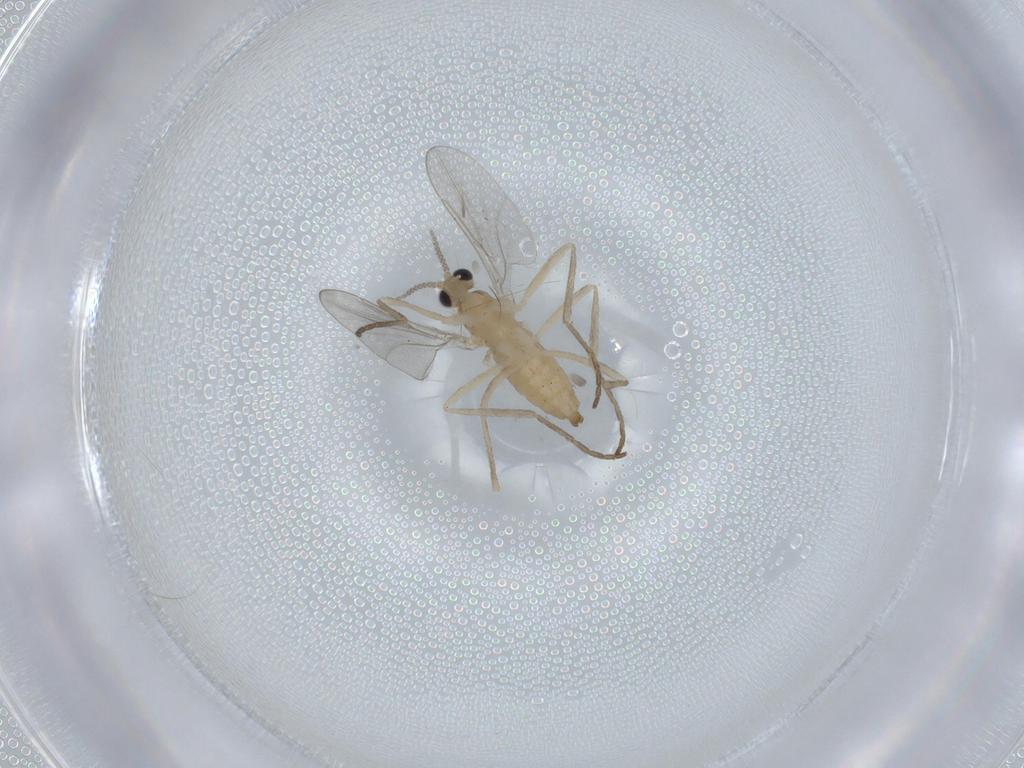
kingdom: Animalia
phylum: Arthropoda
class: Insecta
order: Diptera
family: Cecidomyiidae
